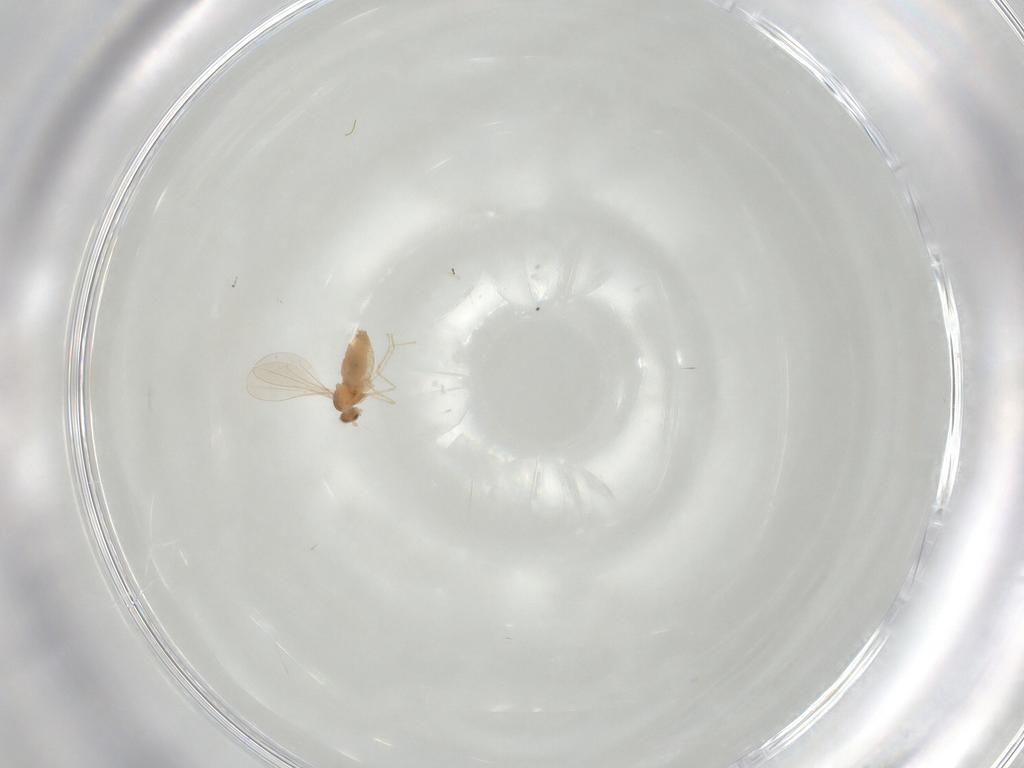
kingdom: Animalia
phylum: Arthropoda
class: Insecta
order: Diptera
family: Cecidomyiidae
